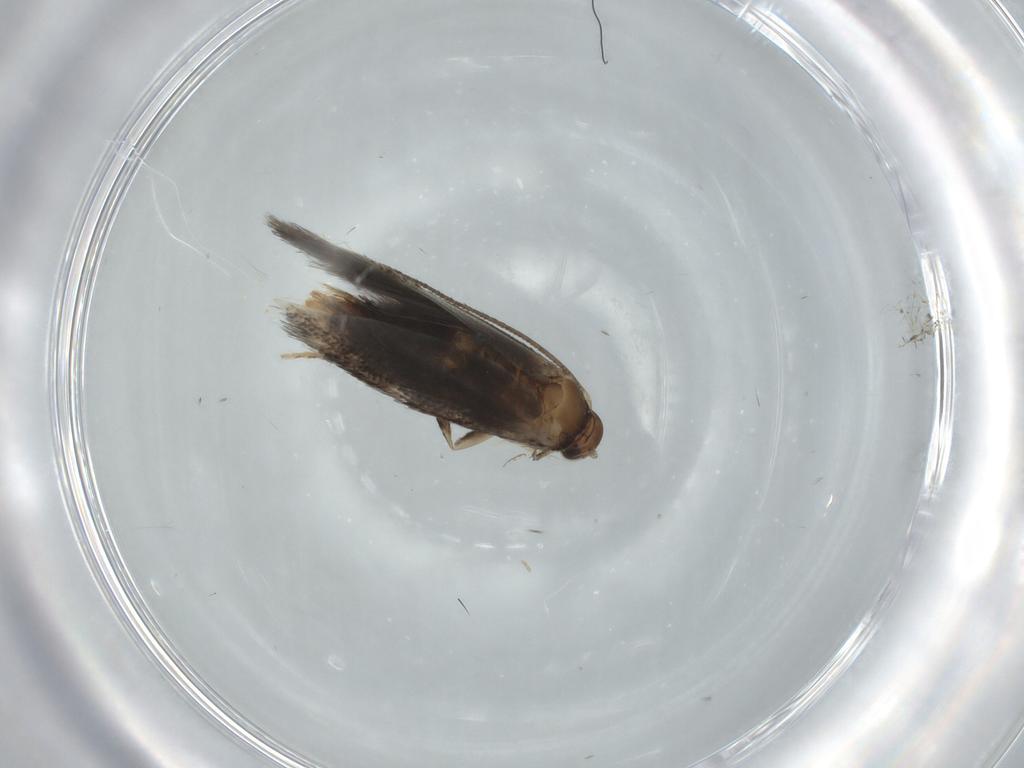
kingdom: Animalia
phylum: Arthropoda
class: Insecta
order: Lepidoptera
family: Elachistidae
